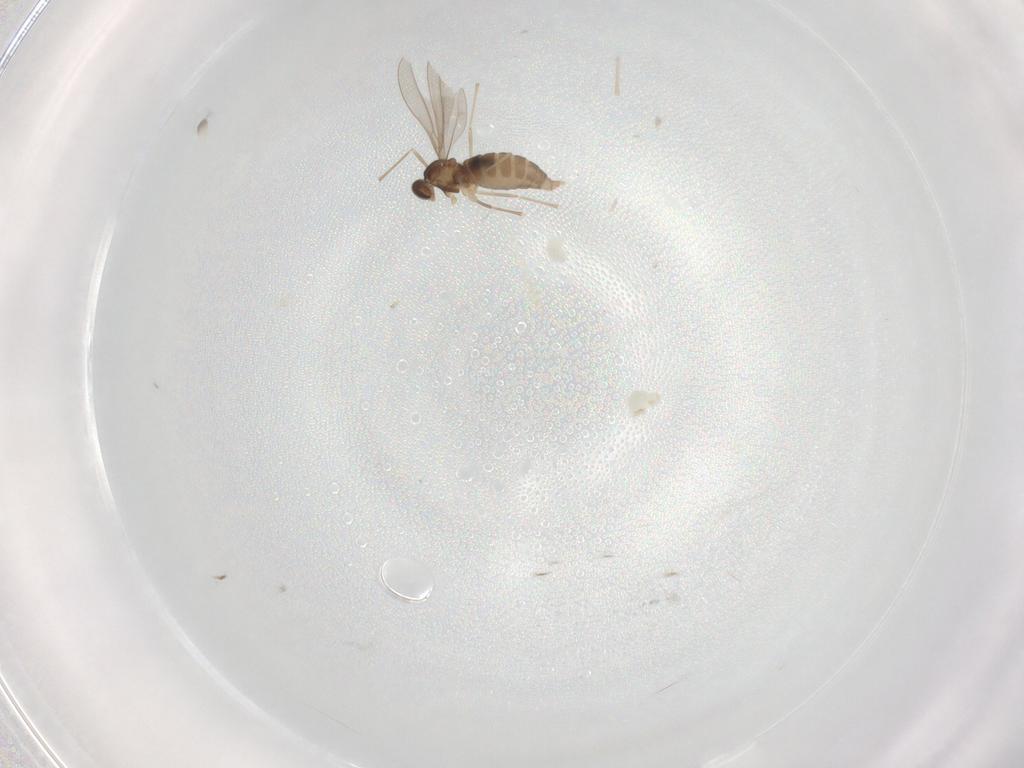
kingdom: Animalia
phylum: Arthropoda
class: Insecta
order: Diptera
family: Cecidomyiidae
